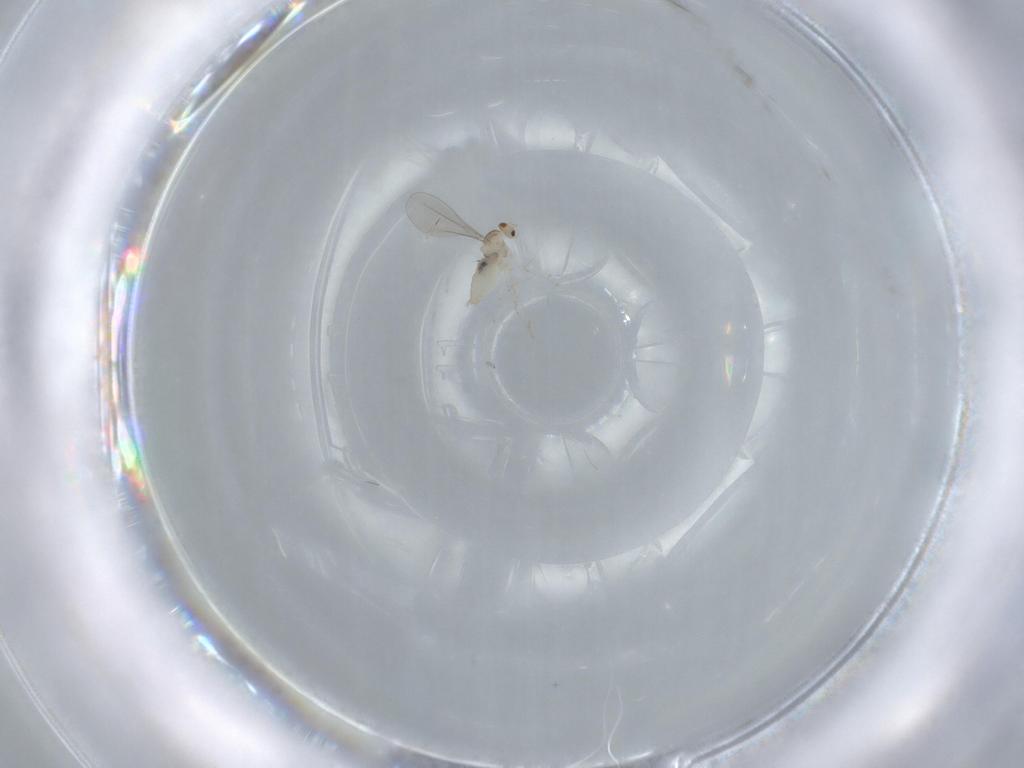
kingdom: Animalia
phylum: Arthropoda
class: Insecta
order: Diptera
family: Cecidomyiidae
